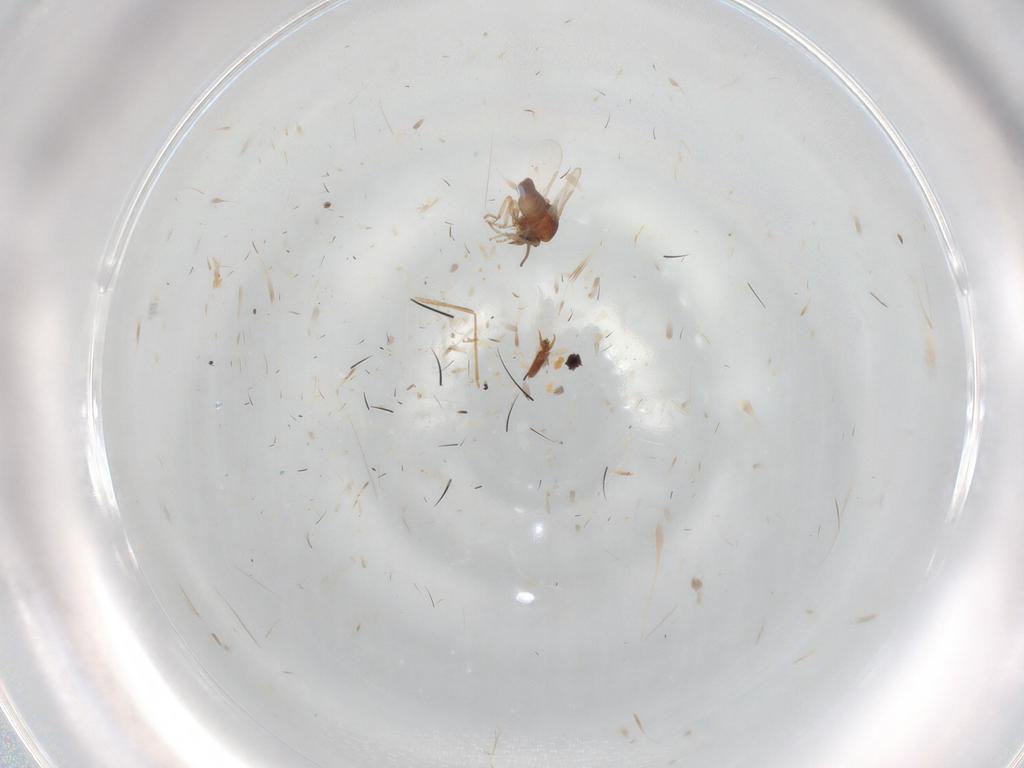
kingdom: Animalia
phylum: Arthropoda
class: Insecta
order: Diptera
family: Ceratopogonidae
